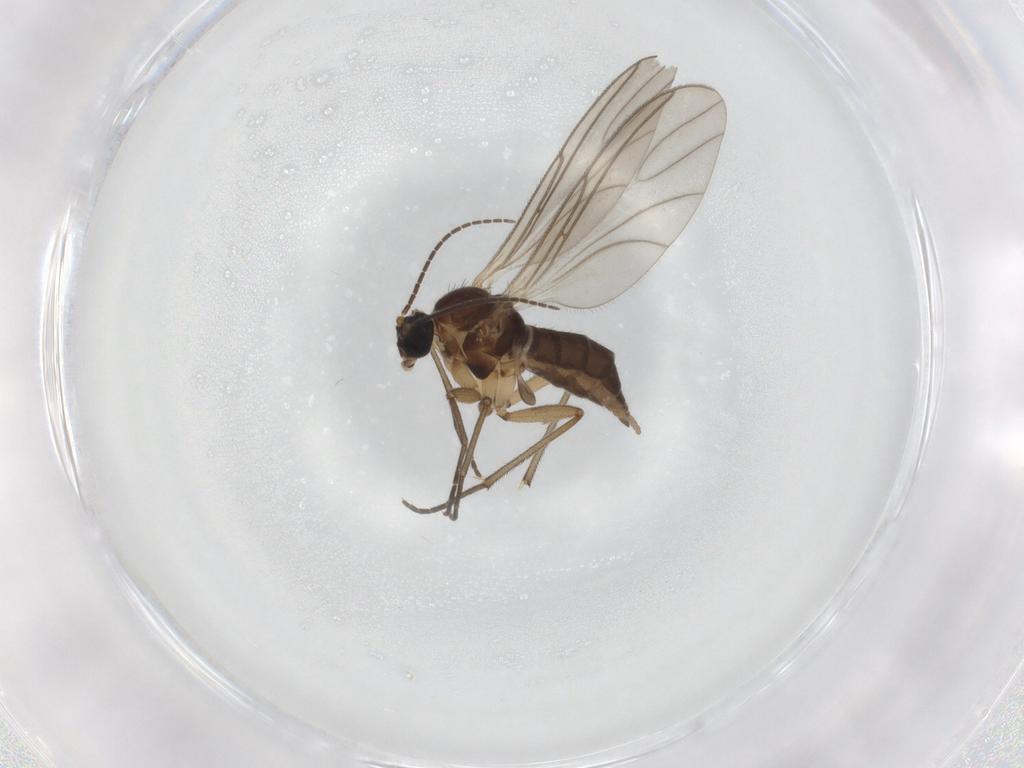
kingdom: Animalia
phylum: Arthropoda
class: Insecta
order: Diptera
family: Sciaridae
